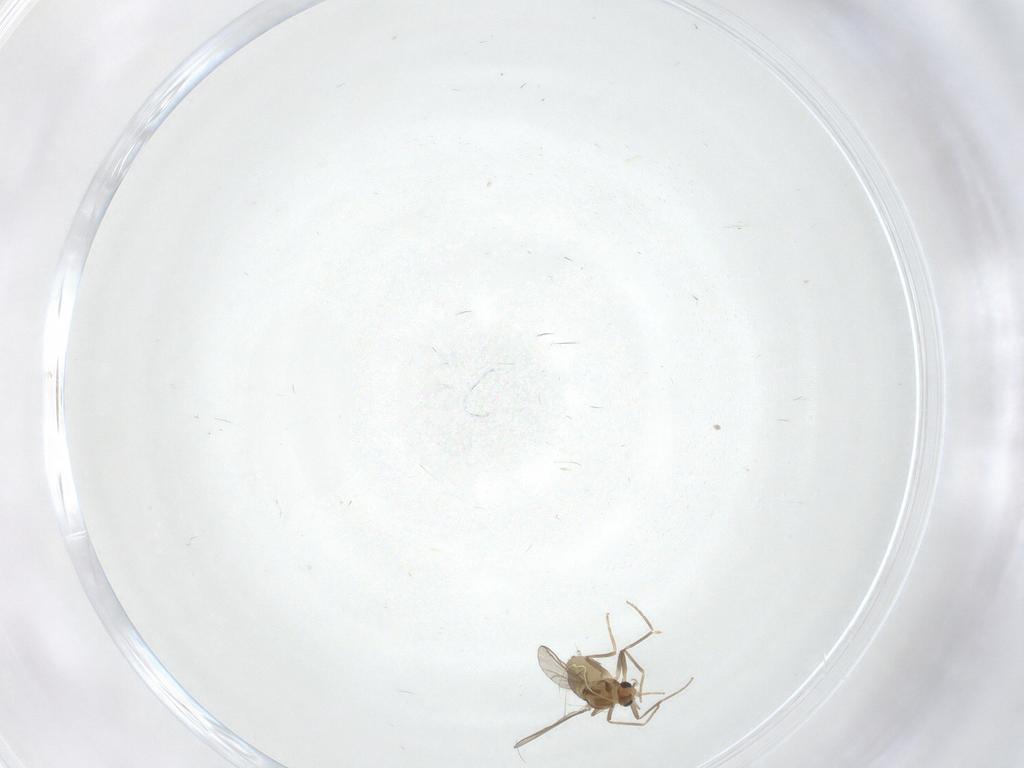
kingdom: Animalia
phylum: Arthropoda
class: Insecta
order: Diptera
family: Chironomidae
